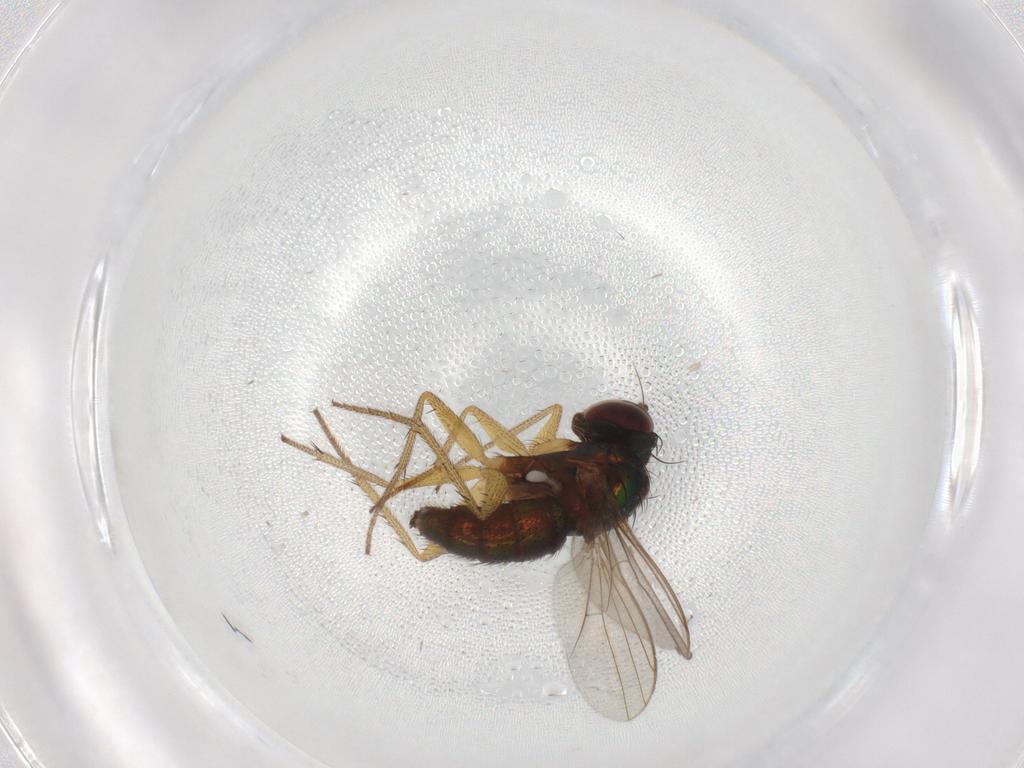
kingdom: Animalia
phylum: Arthropoda
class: Insecta
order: Diptera
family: Dolichopodidae
